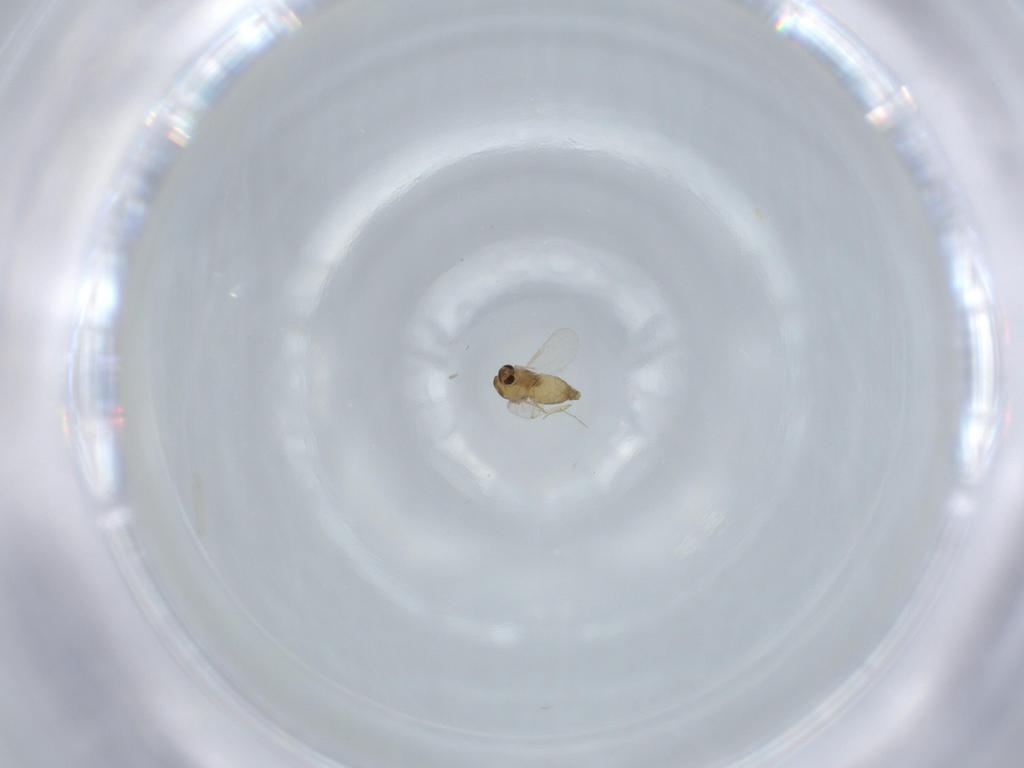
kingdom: Animalia
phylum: Arthropoda
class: Insecta
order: Diptera
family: Chironomidae
